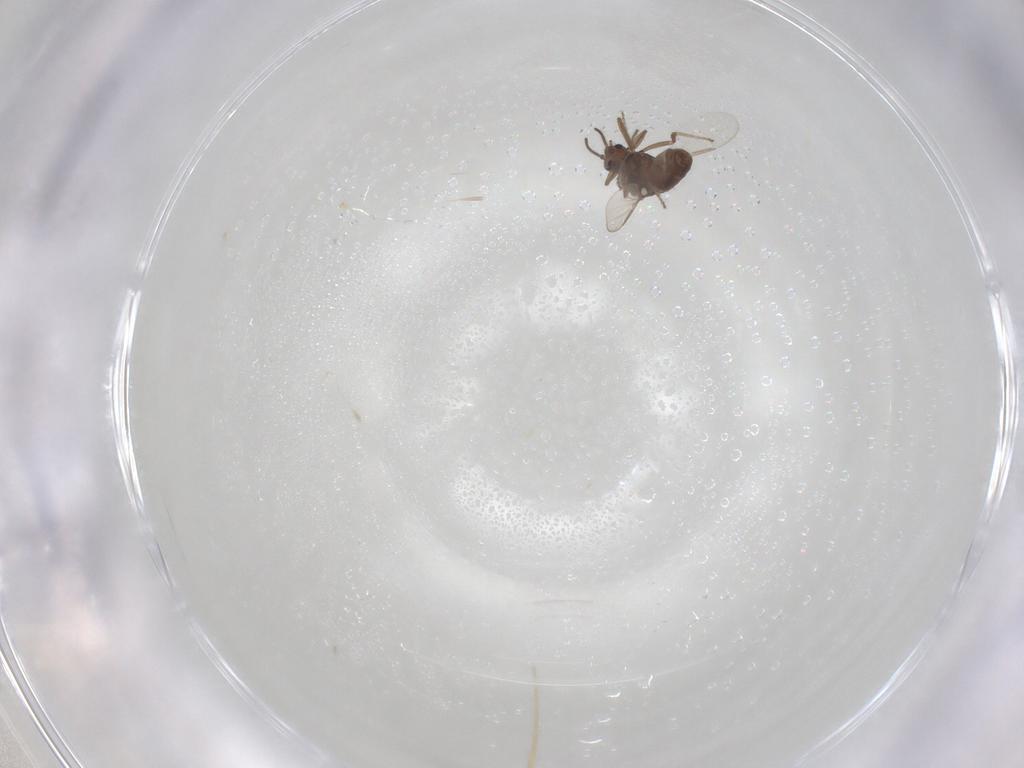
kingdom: Animalia
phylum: Arthropoda
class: Insecta
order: Diptera
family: Ceratopogonidae
